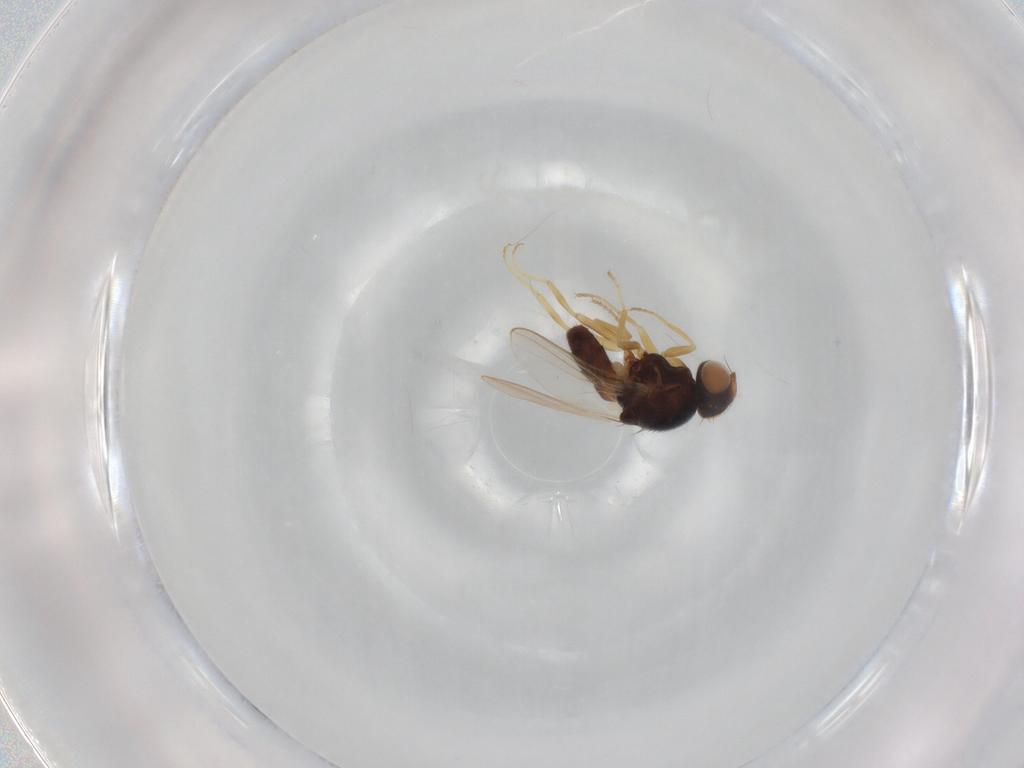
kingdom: Animalia
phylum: Arthropoda
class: Insecta
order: Diptera
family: Chloropidae
